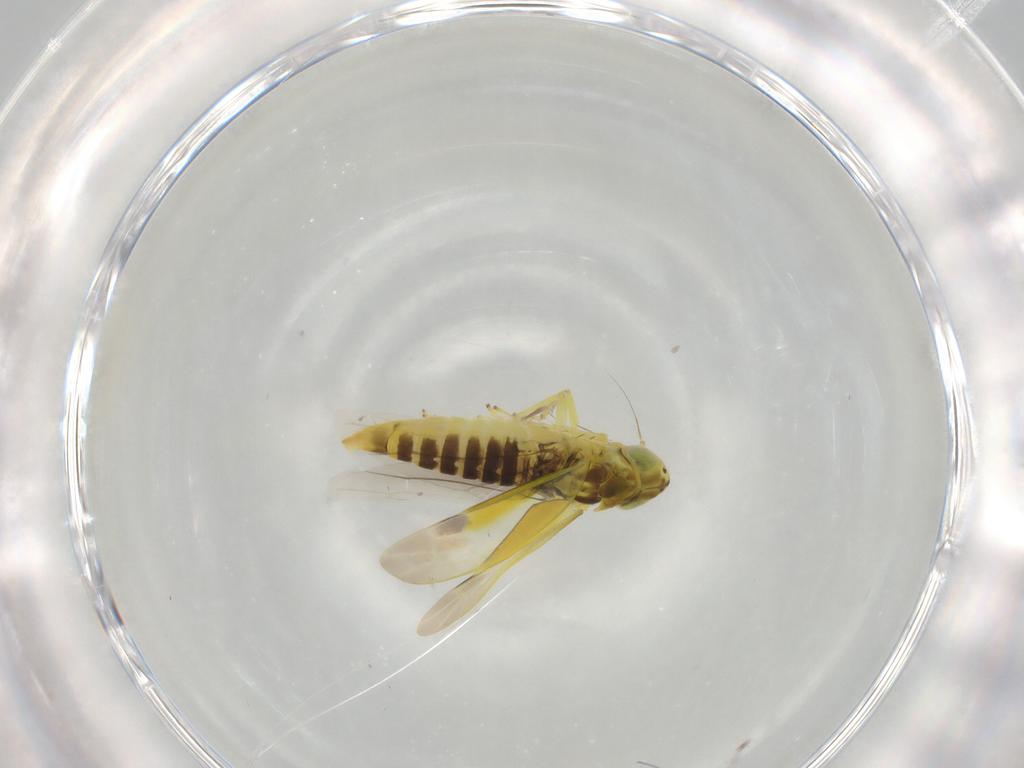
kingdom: Animalia
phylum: Arthropoda
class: Insecta
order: Hemiptera
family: Cicadellidae
